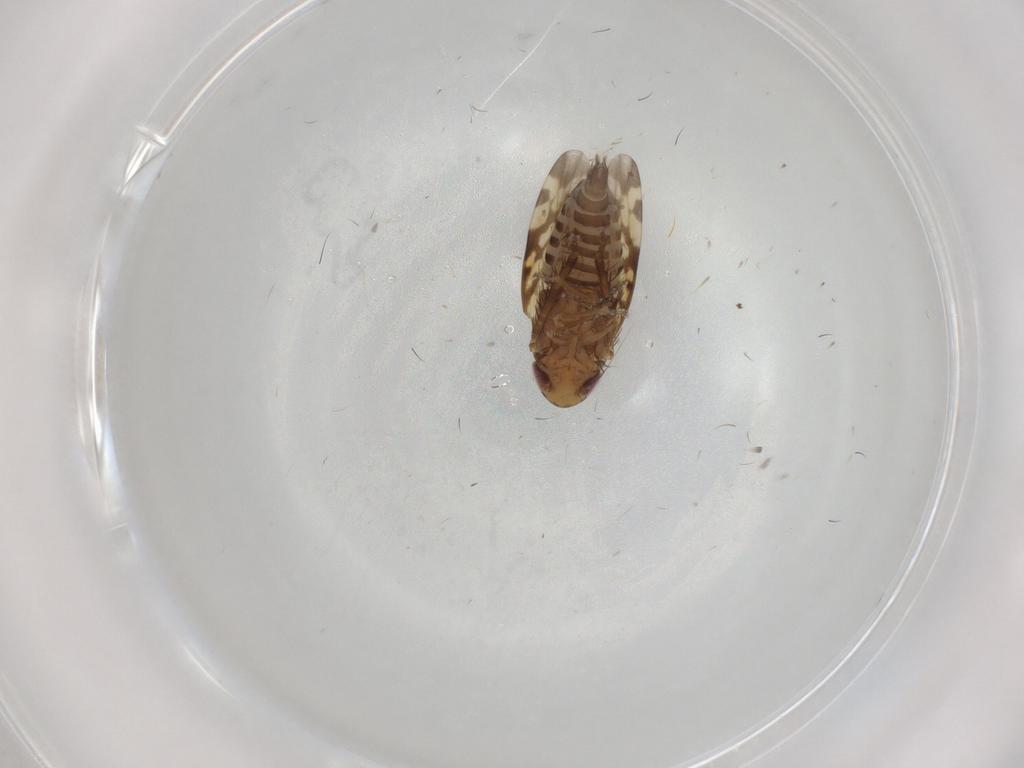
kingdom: Animalia
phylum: Arthropoda
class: Insecta
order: Hemiptera
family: Cicadellidae
